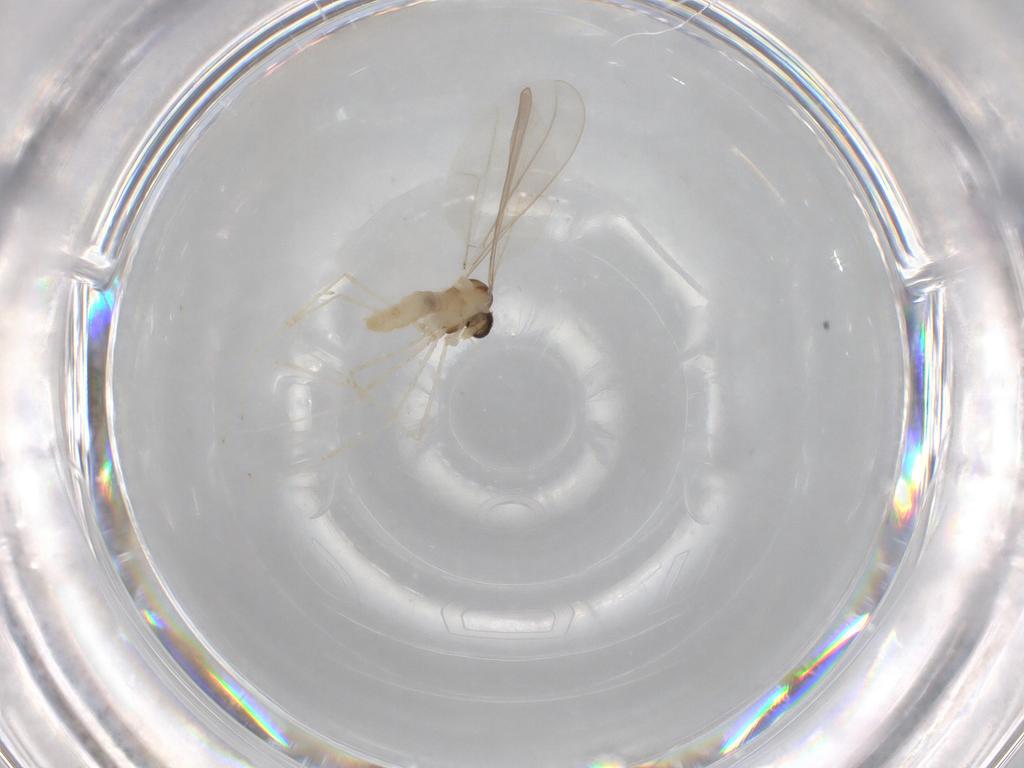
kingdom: Animalia
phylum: Arthropoda
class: Insecta
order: Diptera
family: Cecidomyiidae
